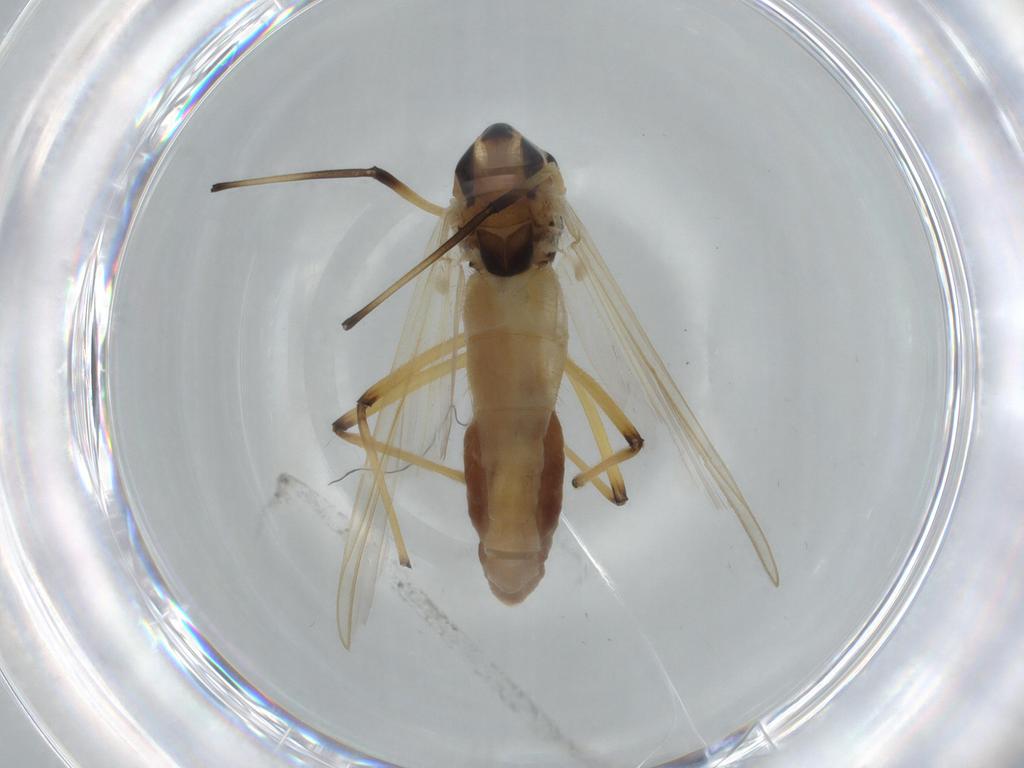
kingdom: Animalia
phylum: Arthropoda
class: Insecta
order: Diptera
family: Chironomidae
